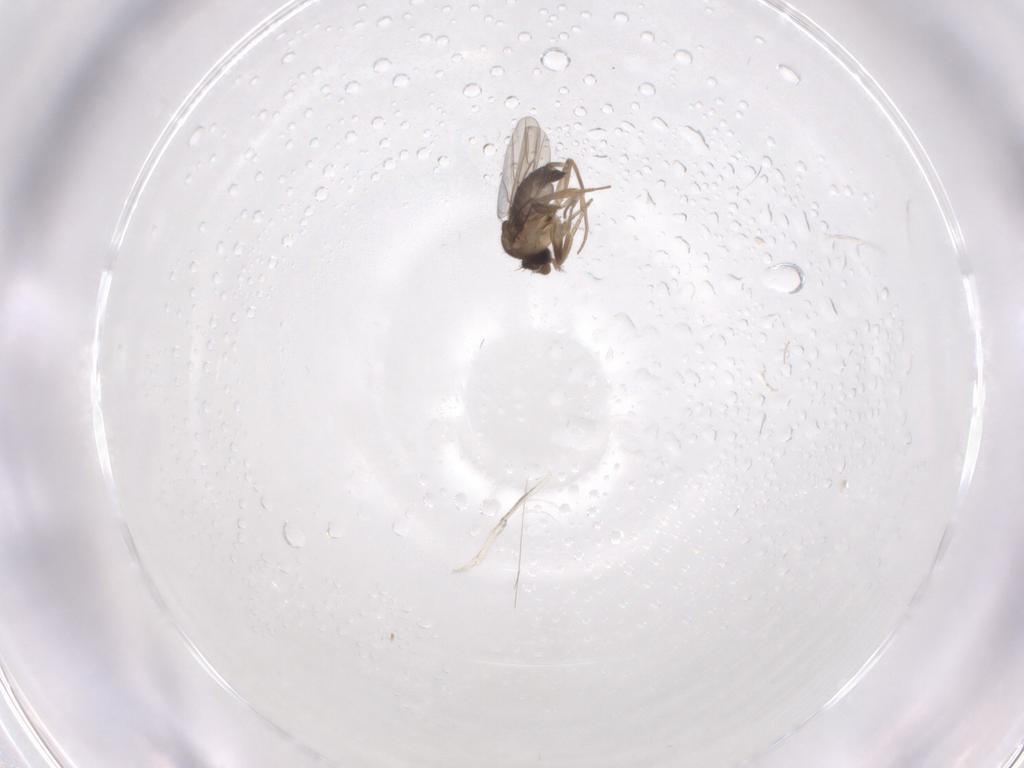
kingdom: Animalia
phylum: Arthropoda
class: Insecta
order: Diptera
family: Phoridae
